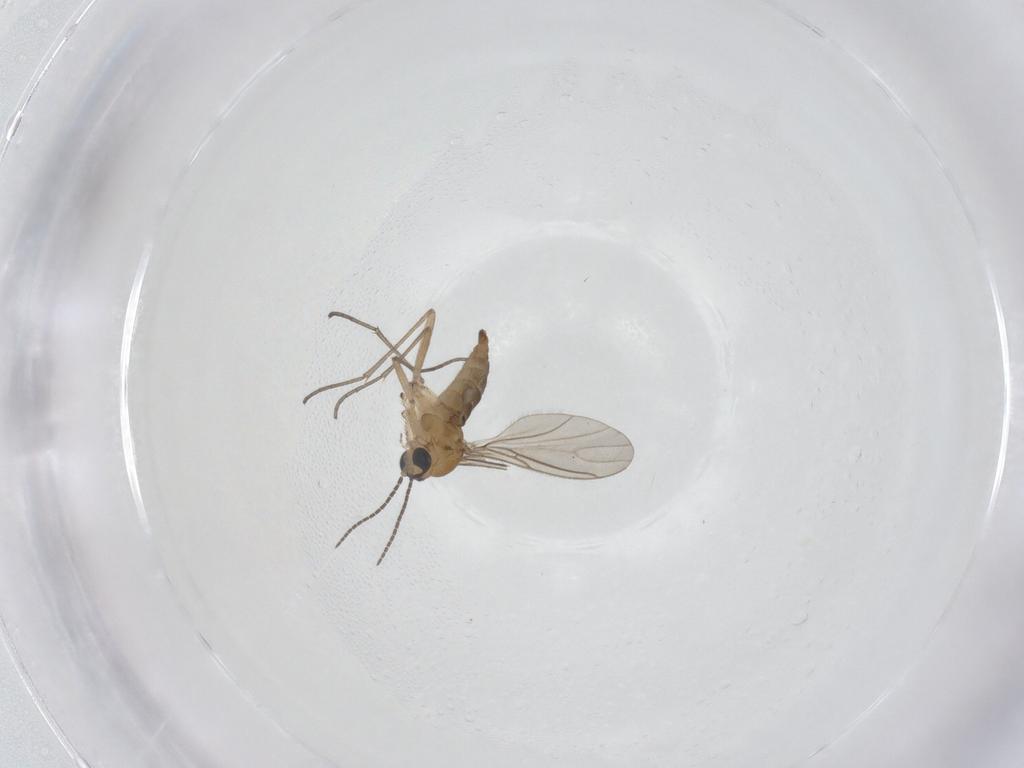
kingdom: Animalia
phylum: Arthropoda
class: Insecta
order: Diptera
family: Sciaridae
